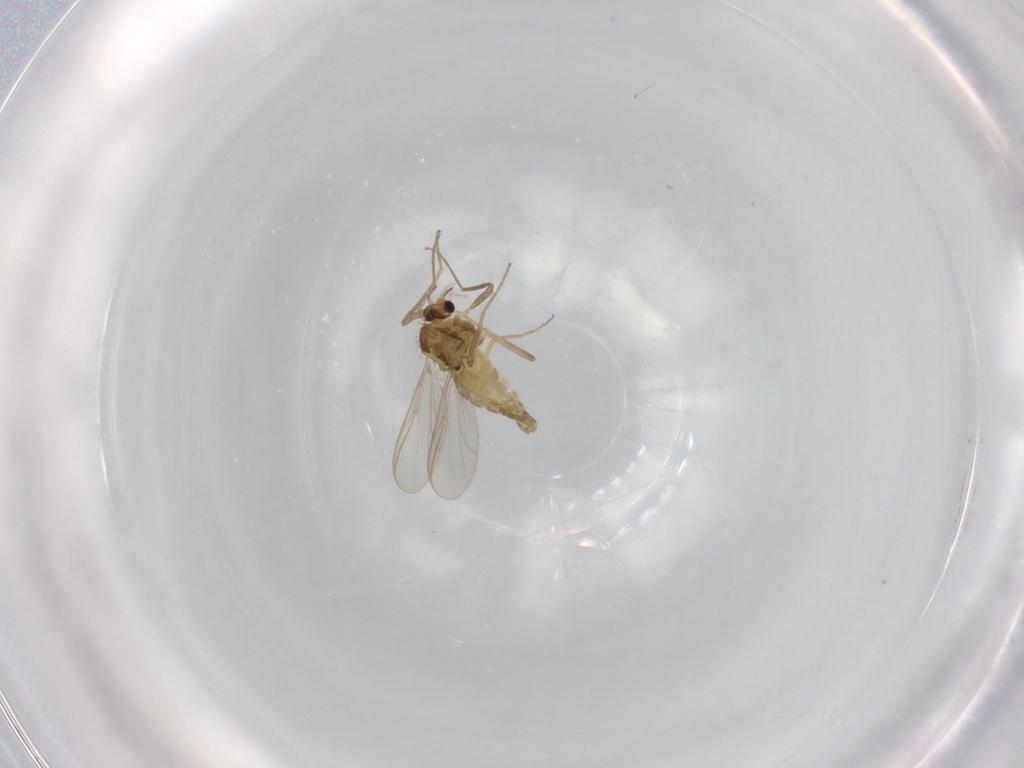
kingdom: Animalia
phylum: Arthropoda
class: Insecta
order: Diptera
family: Chironomidae
